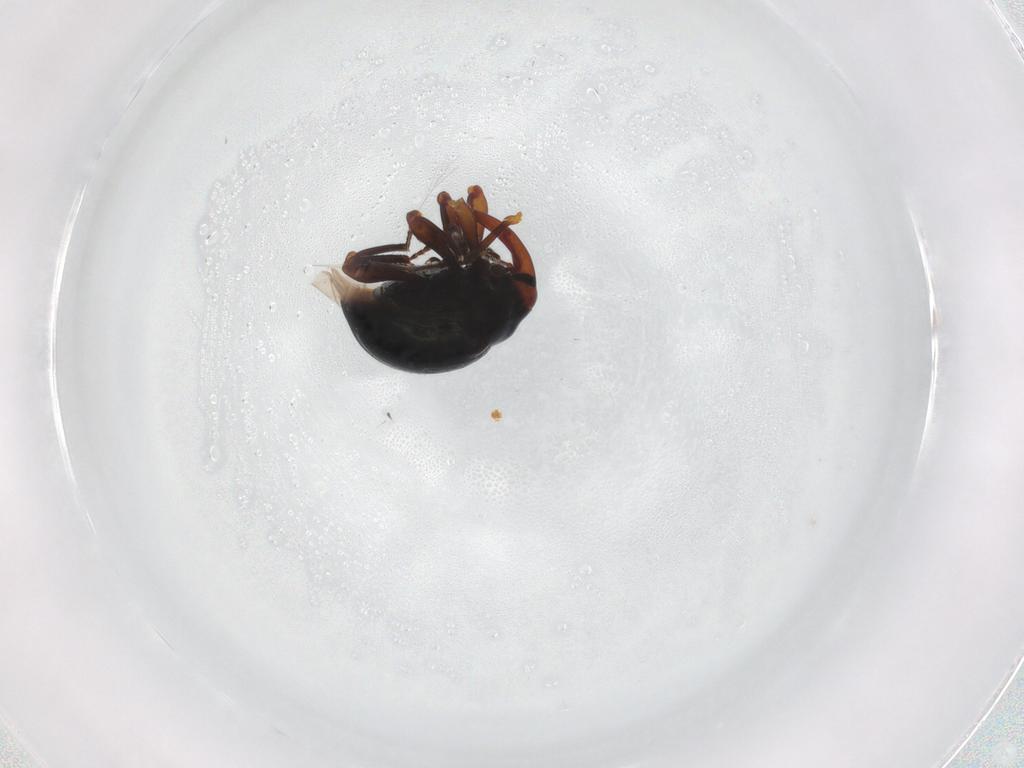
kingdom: Animalia
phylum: Arthropoda
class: Insecta
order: Coleoptera
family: Curculionidae
